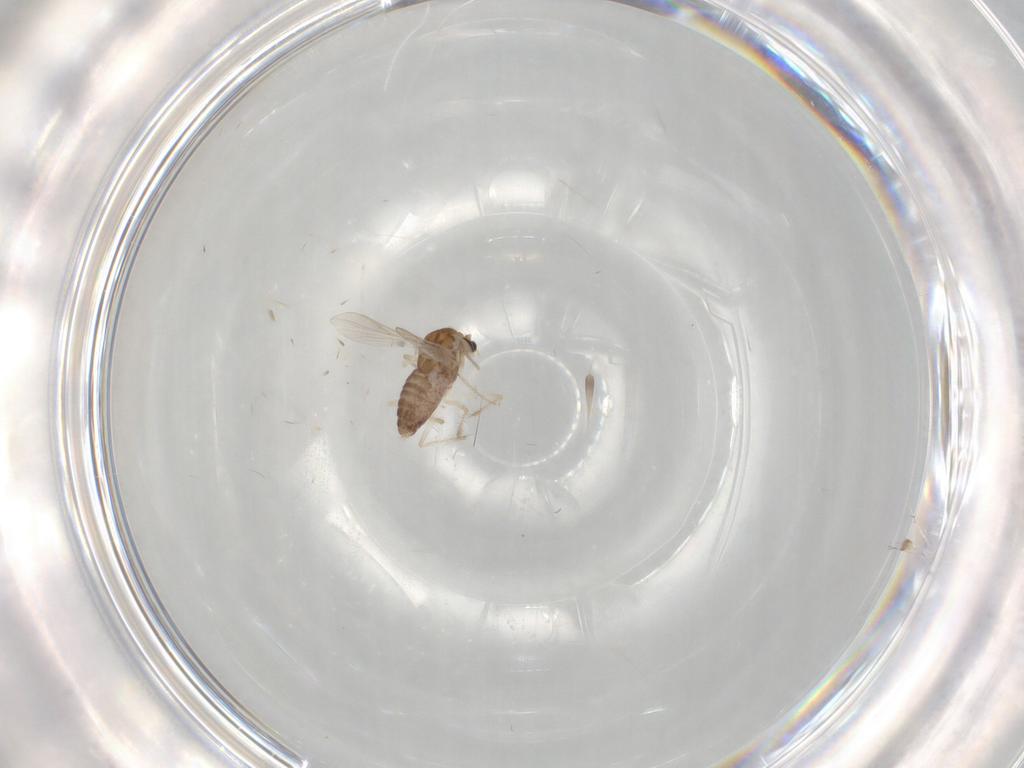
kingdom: Animalia
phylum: Arthropoda
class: Insecta
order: Diptera
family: Chironomidae
